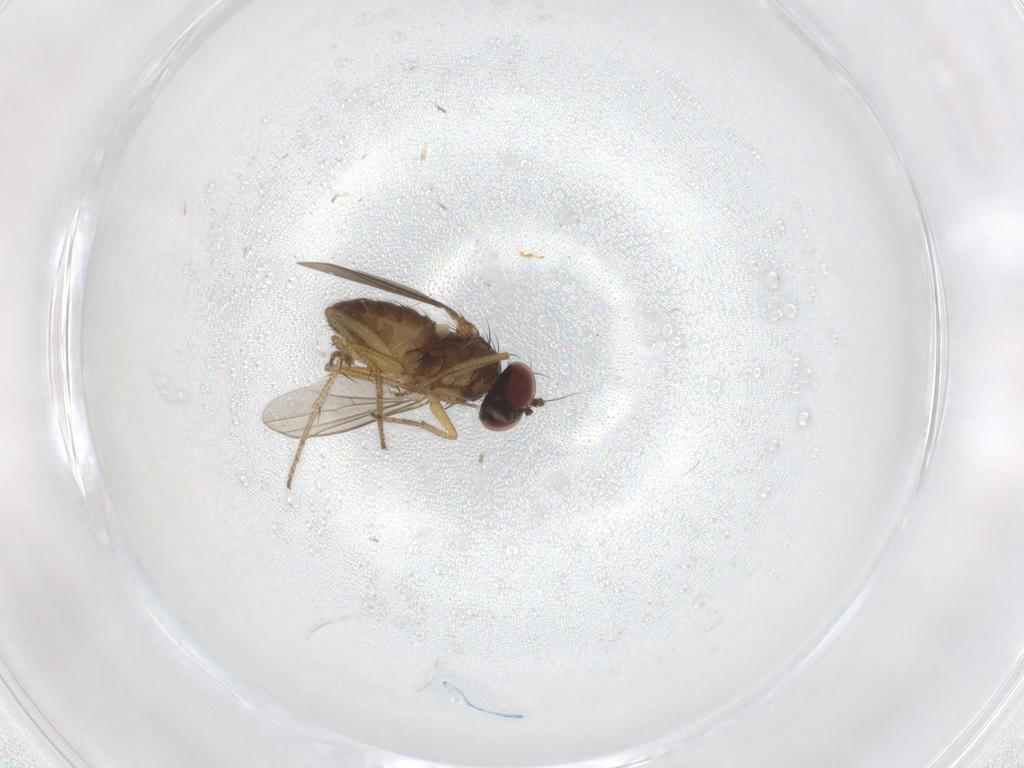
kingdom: Animalia
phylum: Arthropoda
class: Insecta
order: Diptera
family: Dolichopodidae
